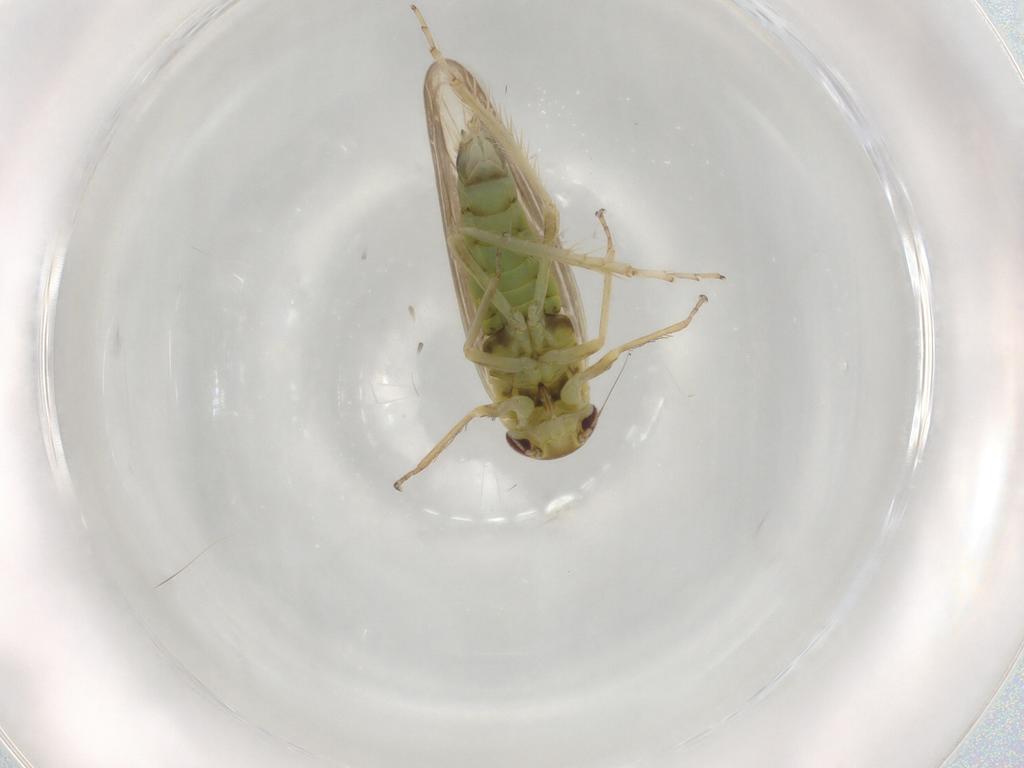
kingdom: Animalia
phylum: Arthropoda
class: Insecta
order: Hemiptera
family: Cicadellidae
